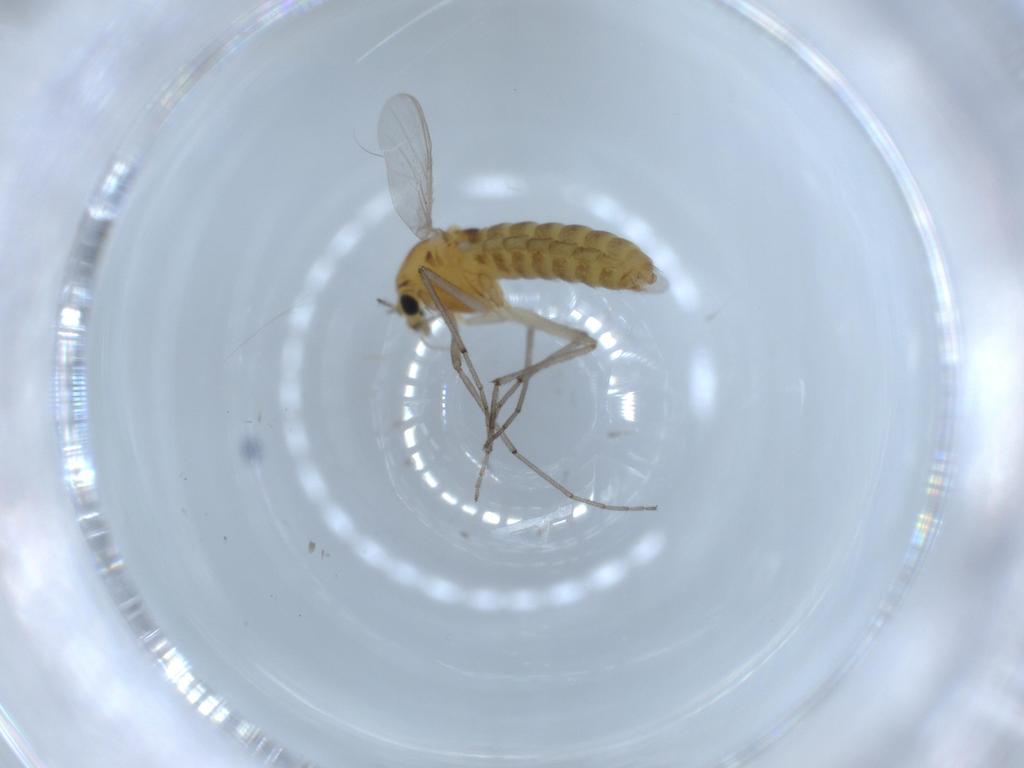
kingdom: Animalia
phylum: Arthropoda
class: Insecta
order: Diptera
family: Chironomidae
